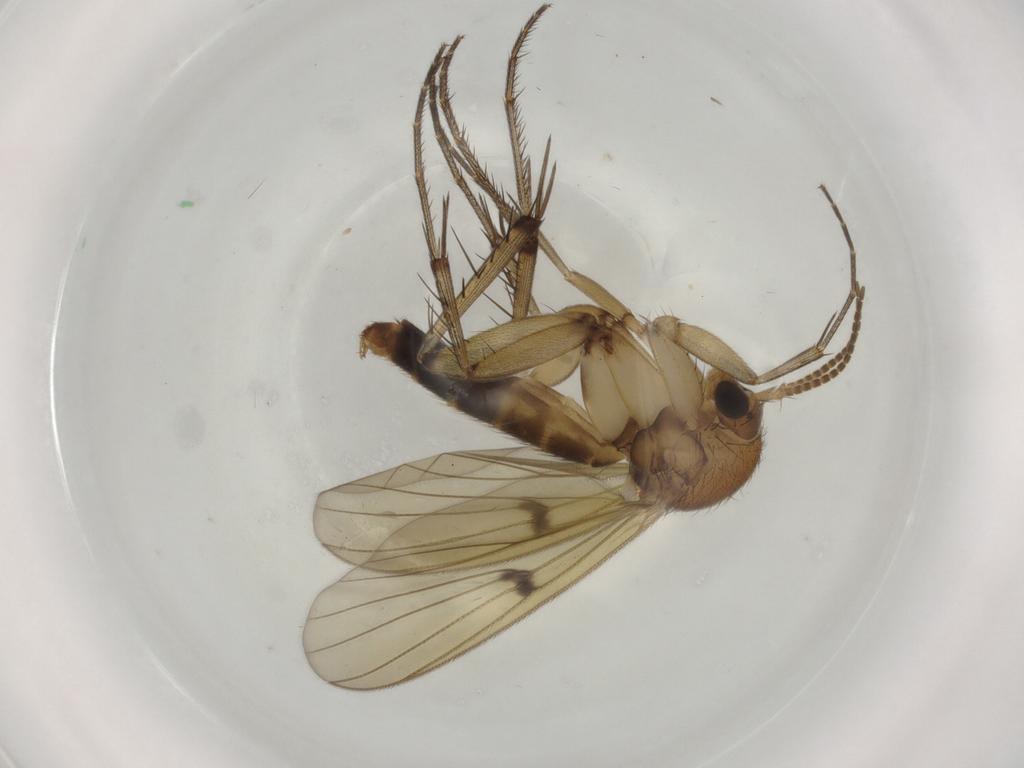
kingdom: Animalia
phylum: Arthropoda
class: Insecta
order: Diptera
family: Mycetophilidae
